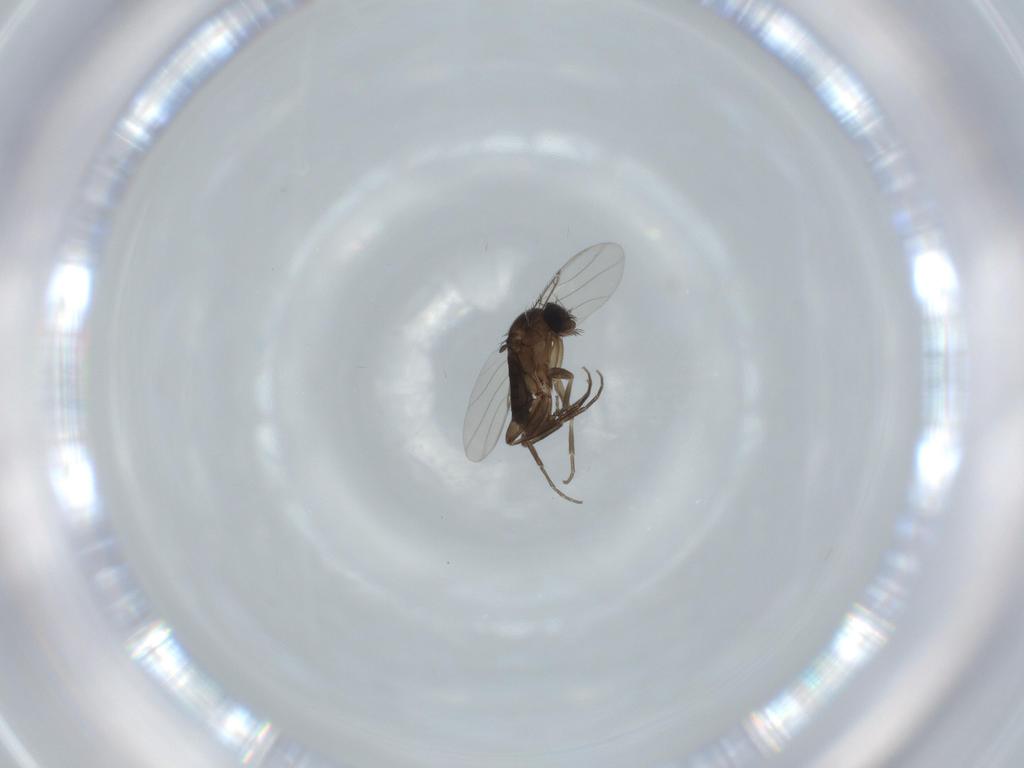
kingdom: Animalia
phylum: Arthropoda
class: Insecta
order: Diptera
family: Phoridae
